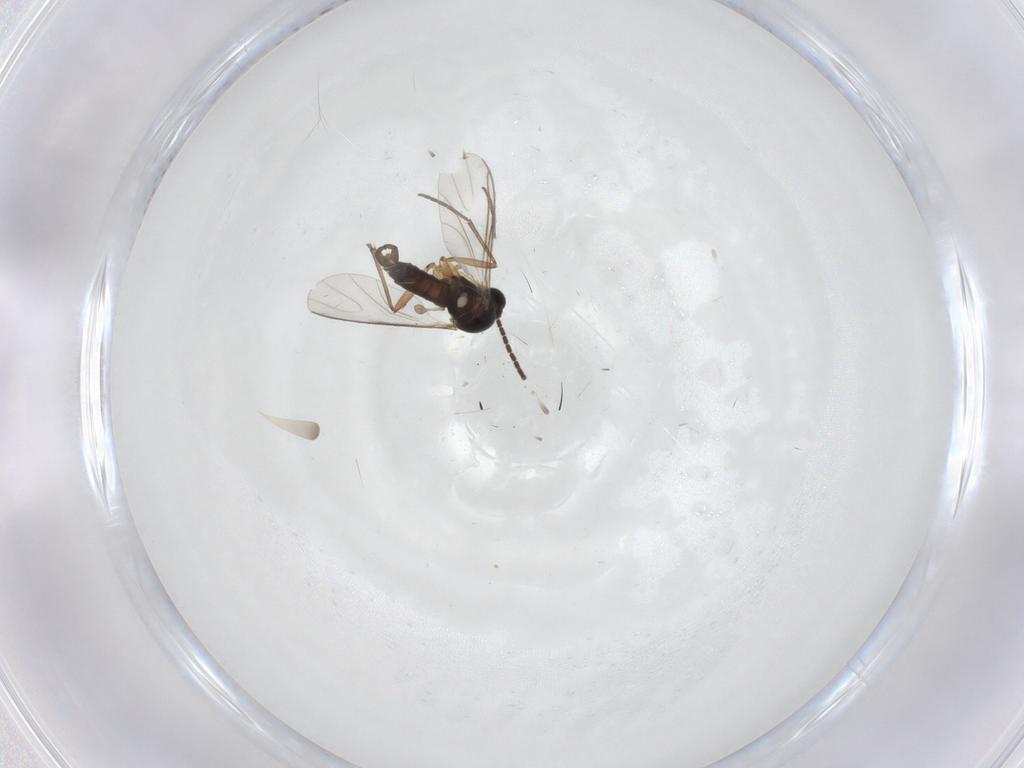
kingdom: Animalia
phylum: Arthropoda
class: Insecta
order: Diptera
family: Sciaridae
